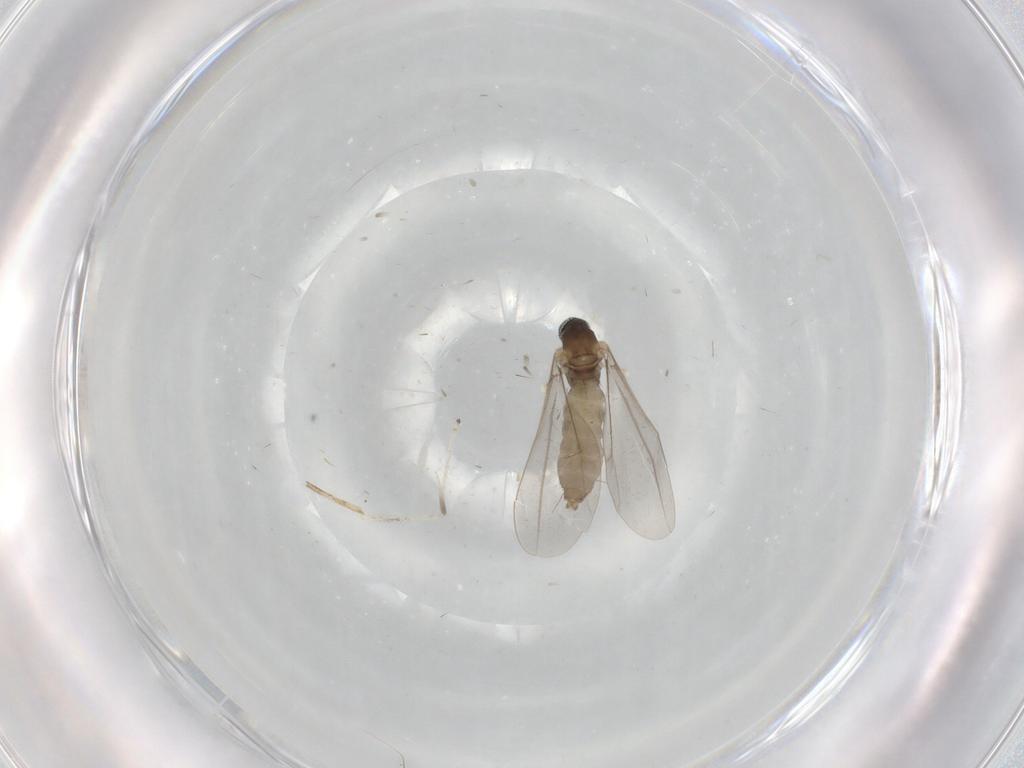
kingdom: Animalia
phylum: Arthropoda
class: Insecta
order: Diptera
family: Cecidomyiidae
